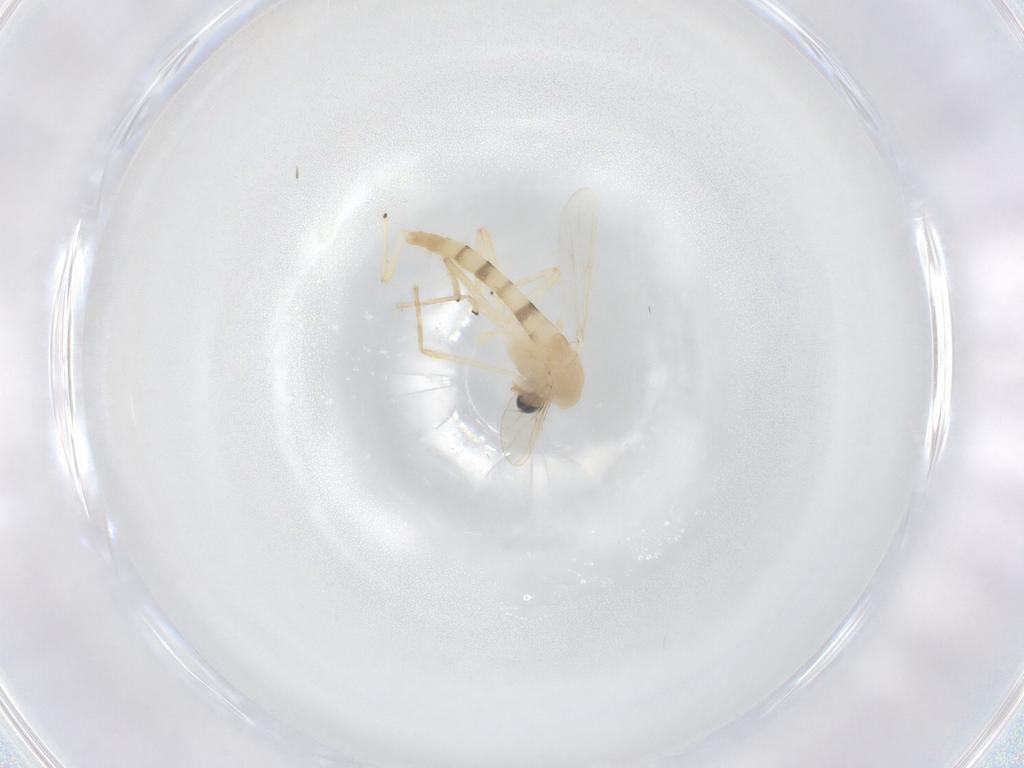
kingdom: Animalia
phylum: Arthropoda
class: Insecta
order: Diptera
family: Chironomidae
